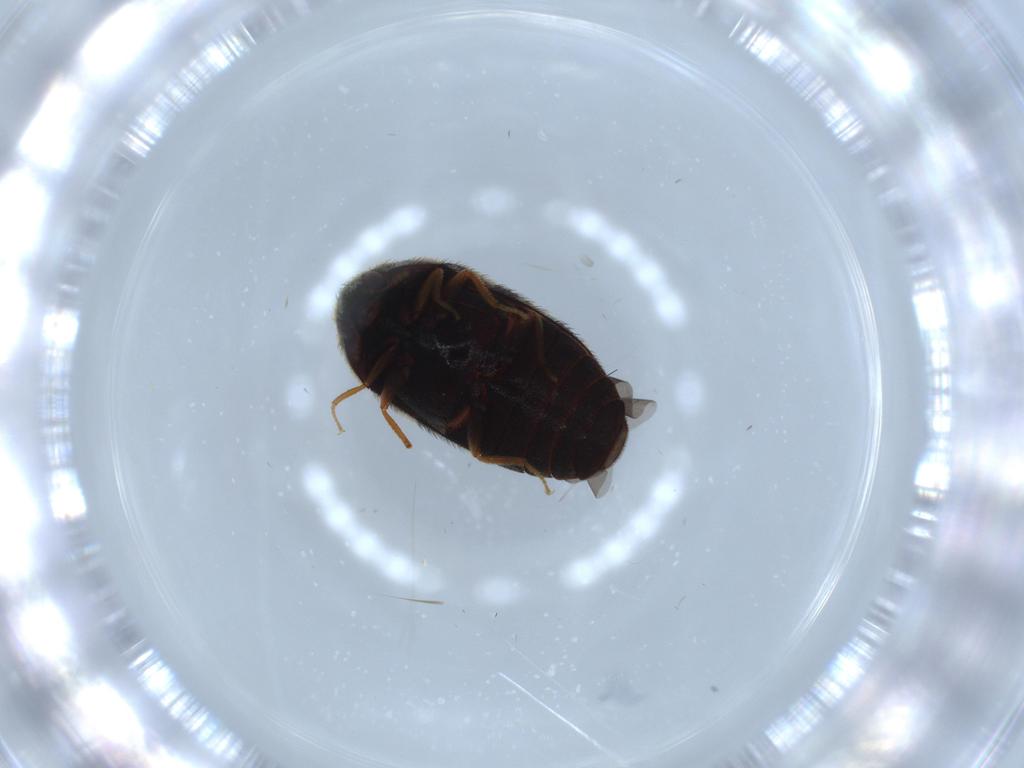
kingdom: Animalia
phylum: Arthropoda
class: Insecta
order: Coleoptera
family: Dermestidae
